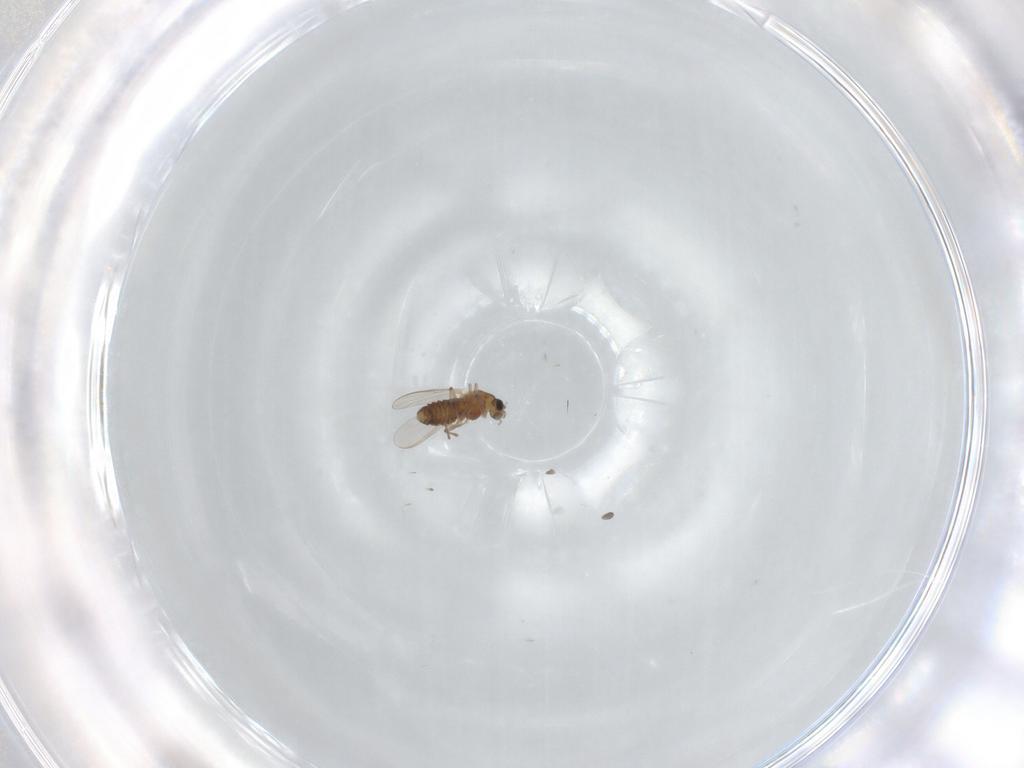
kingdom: Animalia
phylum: Arthropoda
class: Insecta
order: Diptera
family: Chironomidae
